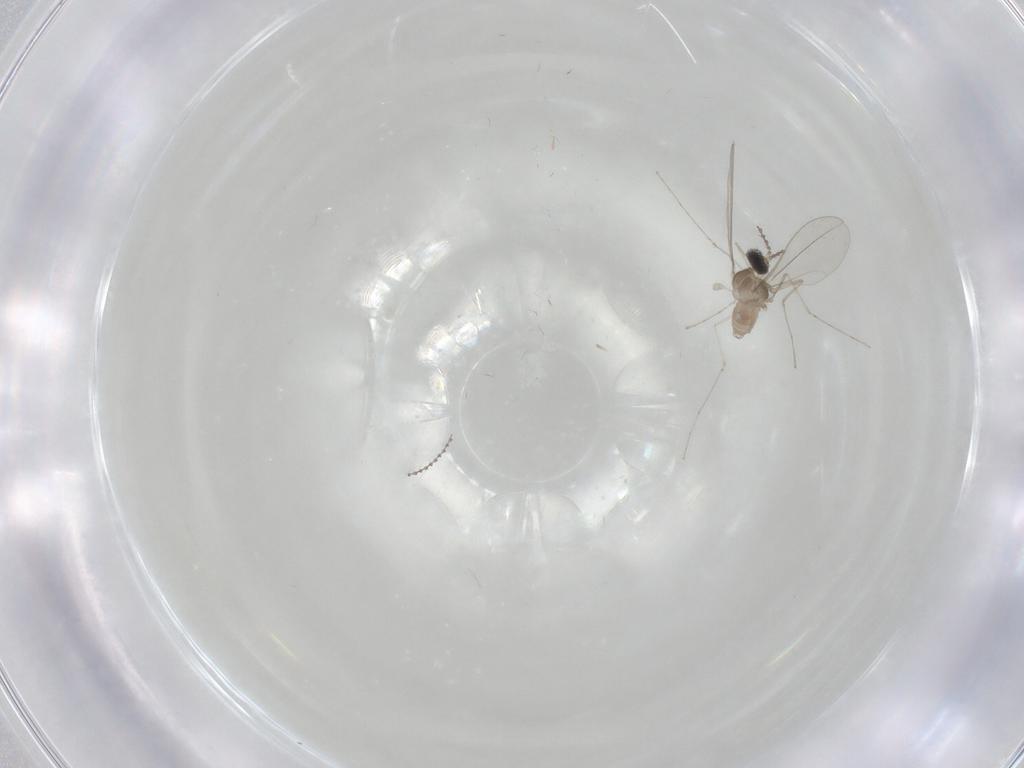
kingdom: Animalia
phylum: Arthropoda
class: Insecta
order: Diptera
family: Cecidomyiidae
